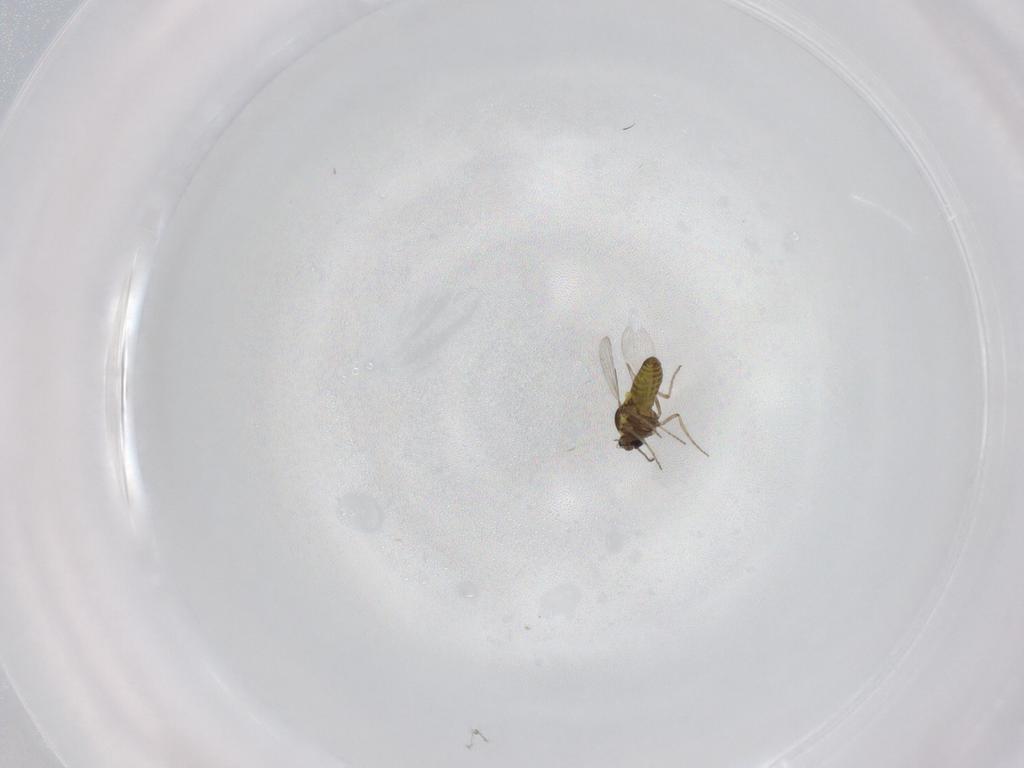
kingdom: Animalia
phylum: Arthropoda
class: Insecta
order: Diptera
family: Ceratopogonidae
